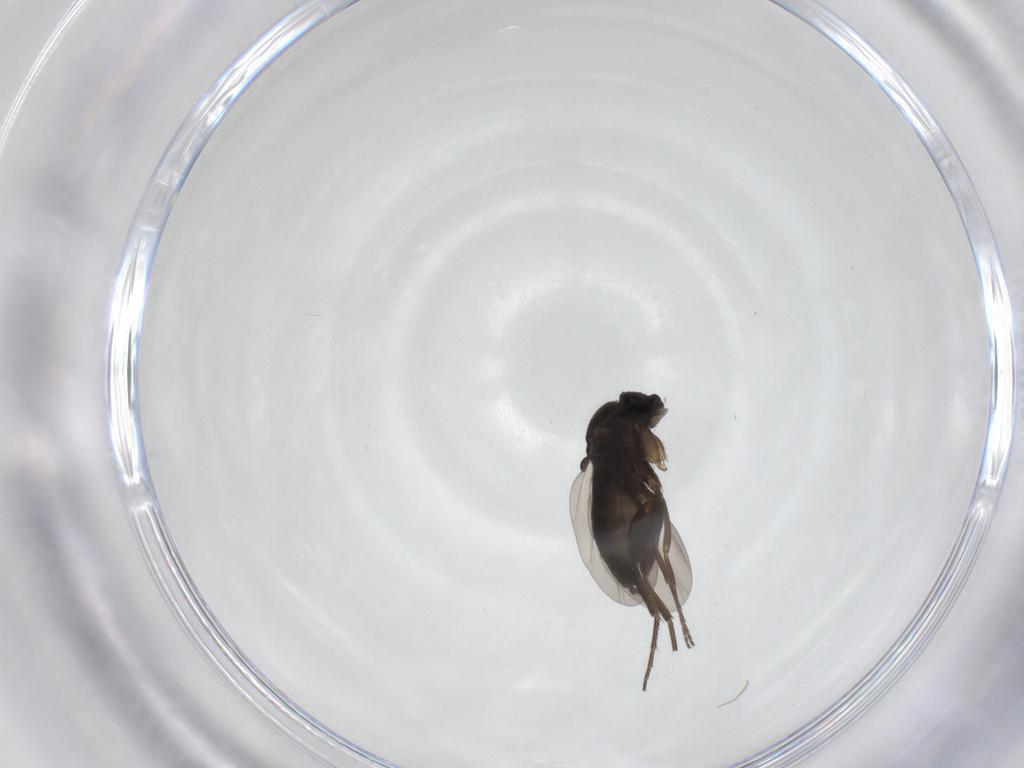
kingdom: Animalia
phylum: Arthropoda
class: Insecta
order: Diptera
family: Phoridae
